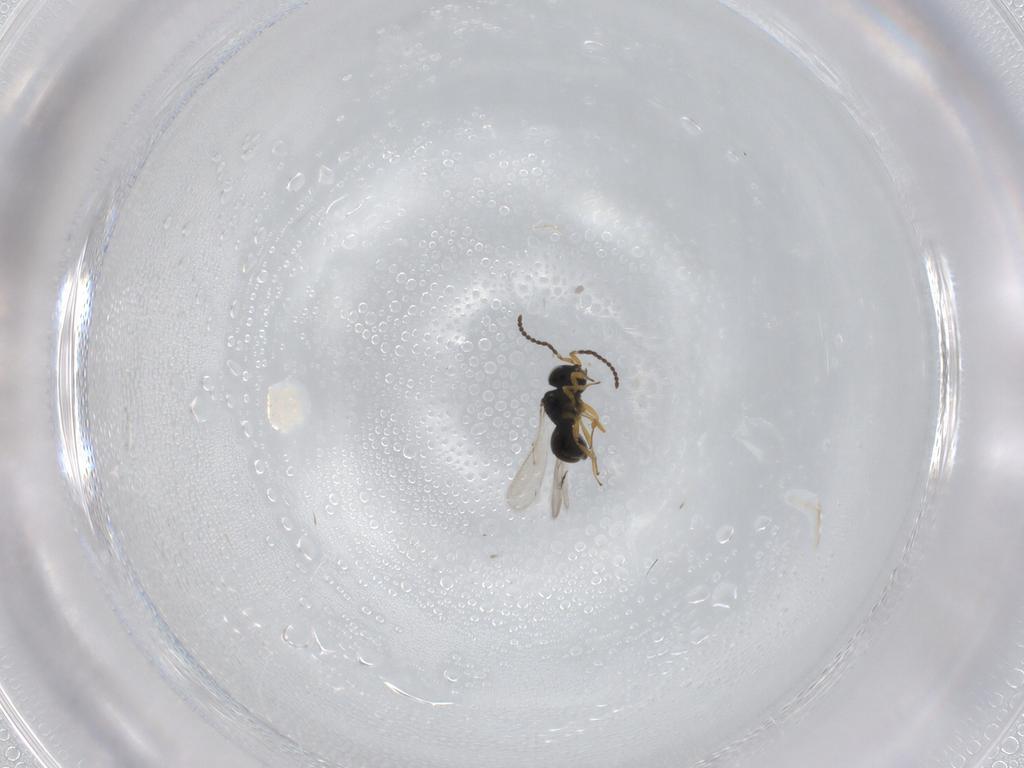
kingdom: Animalia
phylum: Arthropoda
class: Insecta
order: Hymenoptera
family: Scelionidae
